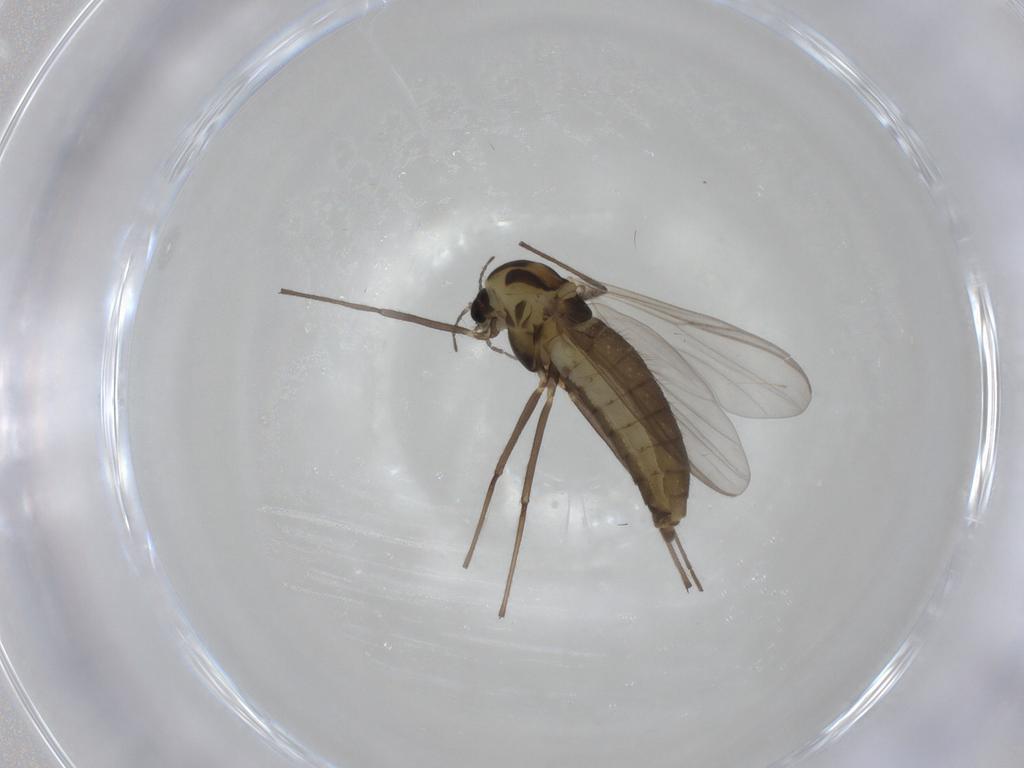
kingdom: Animalia
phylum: Arthropoda
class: Insecta
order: Diptera
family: Chironomidae
